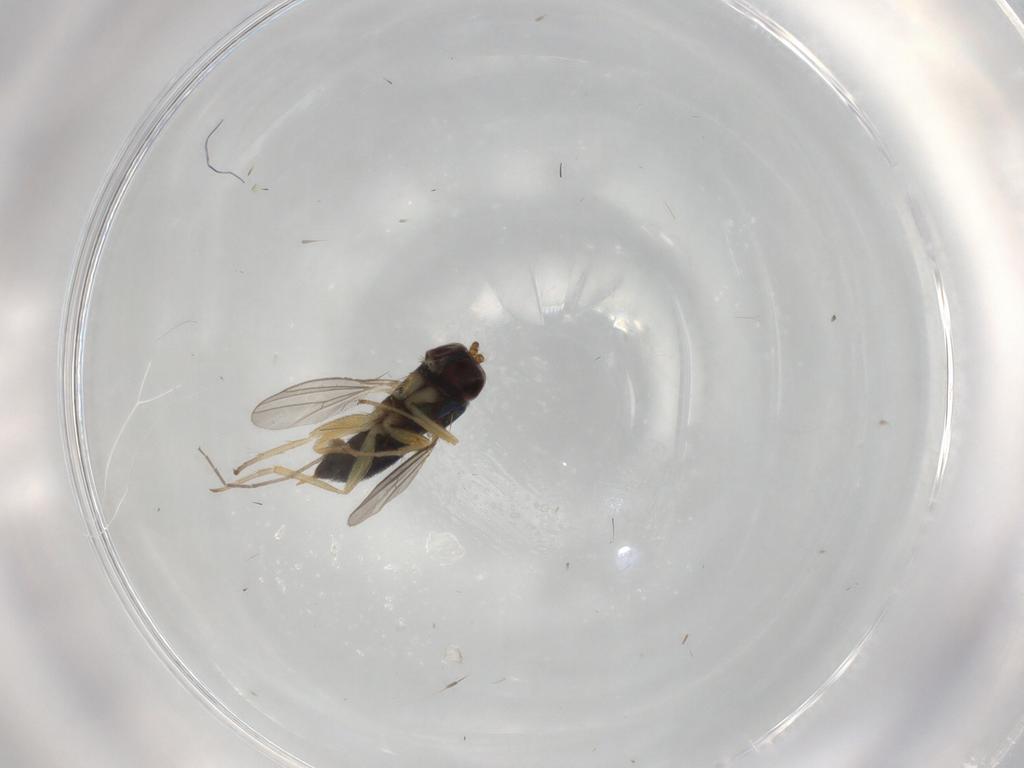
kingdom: Animalia
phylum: Arthropoda
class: Insecta
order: Diptera
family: Dolichopodidae
